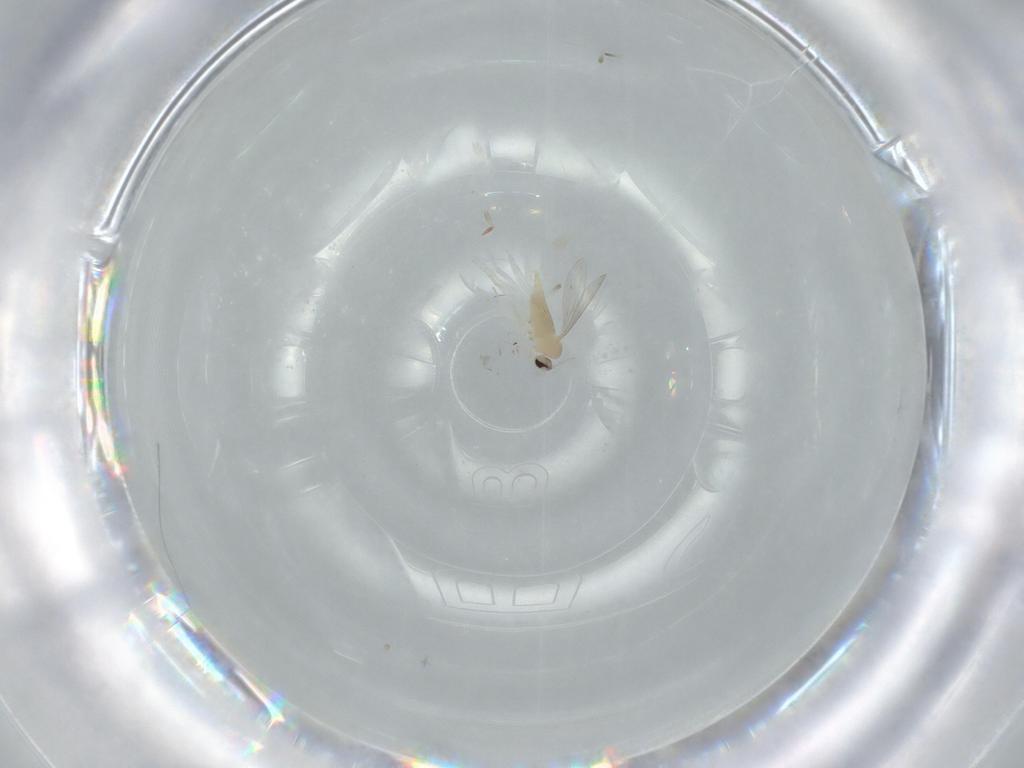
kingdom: Animalia
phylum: Arthropoda
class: Insecta
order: Diptera
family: Cecidomyiidae
